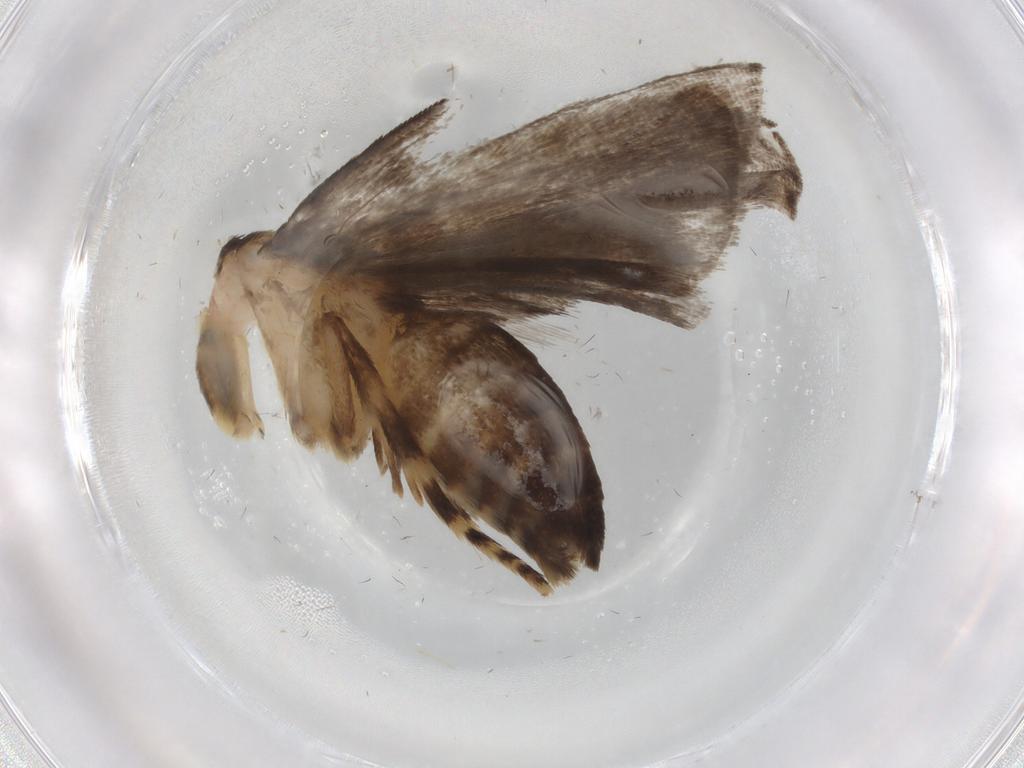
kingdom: Animalia
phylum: Arthropoda
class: Insecta
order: Lepidoptera
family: Immidae
